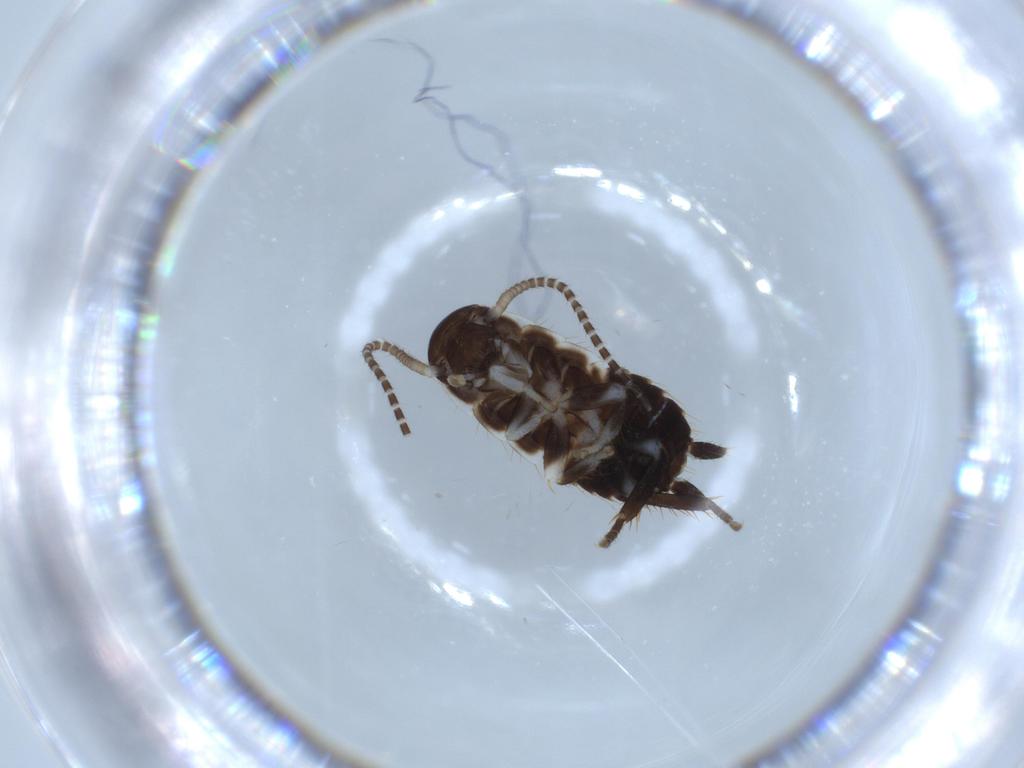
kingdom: Animalia
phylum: Arthropoda
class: Insecta
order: Blattodea
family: Ectobiidae
